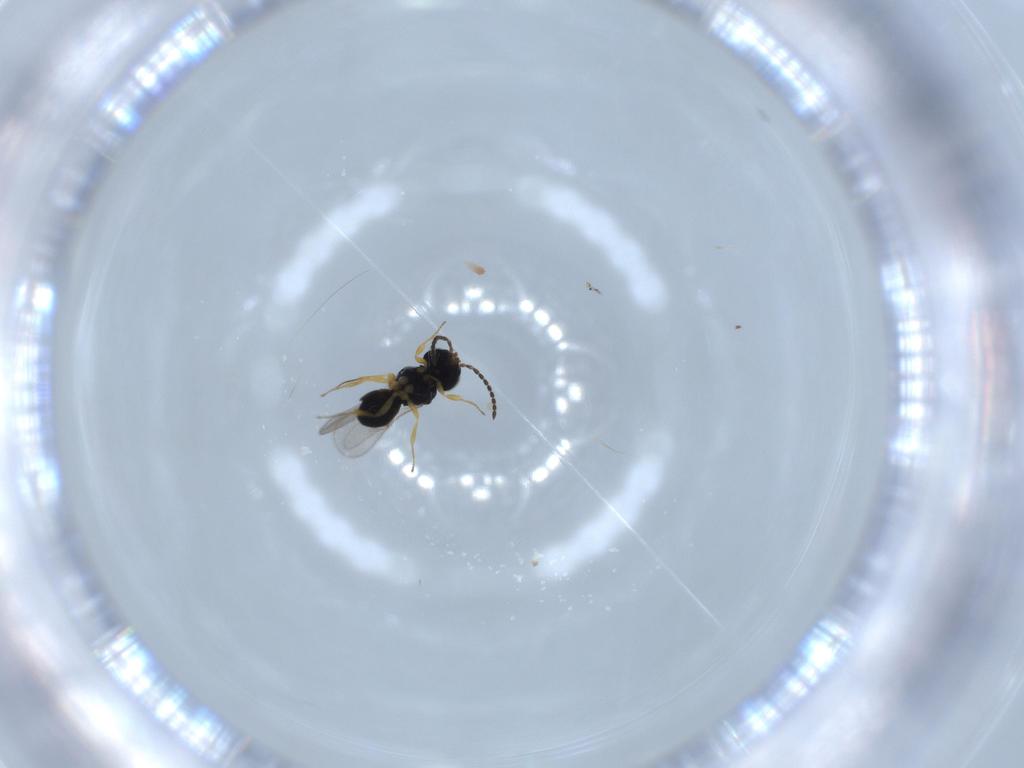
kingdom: Animalia
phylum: Arthropoda
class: Insecta
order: Hymenoptera
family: Scelionidae
